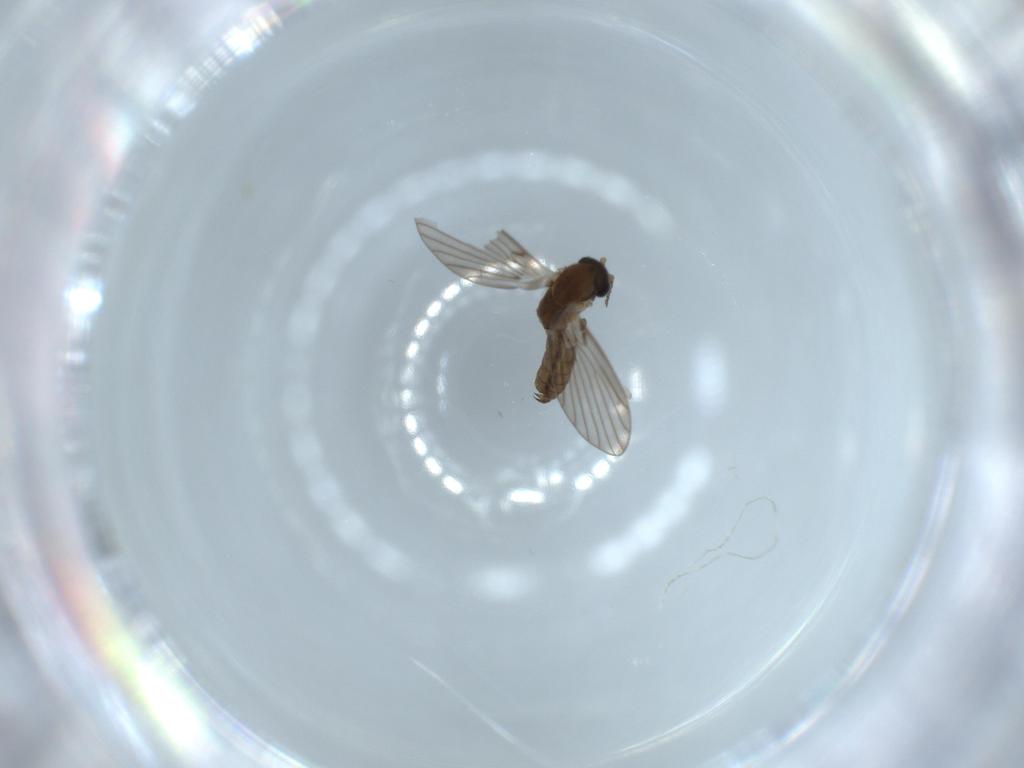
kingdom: Animalia
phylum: Arthropoda
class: Insecta
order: Diptera
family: Psychodidae
